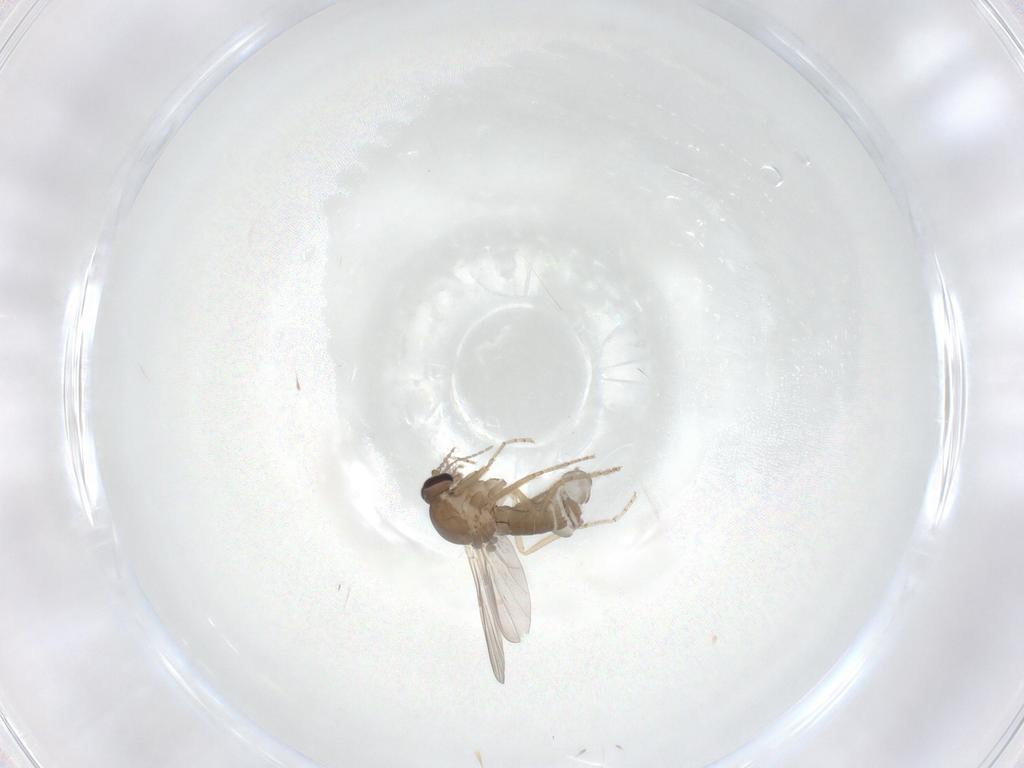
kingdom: Animalia
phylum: Arthropoda
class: Insecta
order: Diptera
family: Ceratopogonidae
